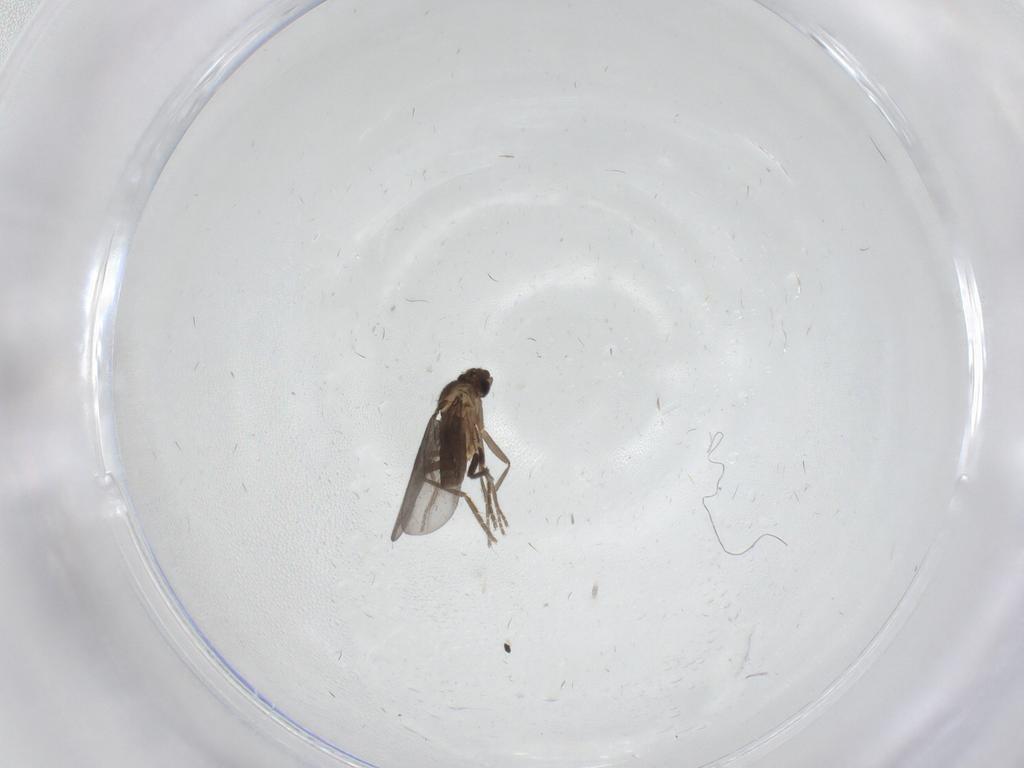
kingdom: Animalia
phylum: Arthropoda
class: Insecta
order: Diptera
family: Phoridae
